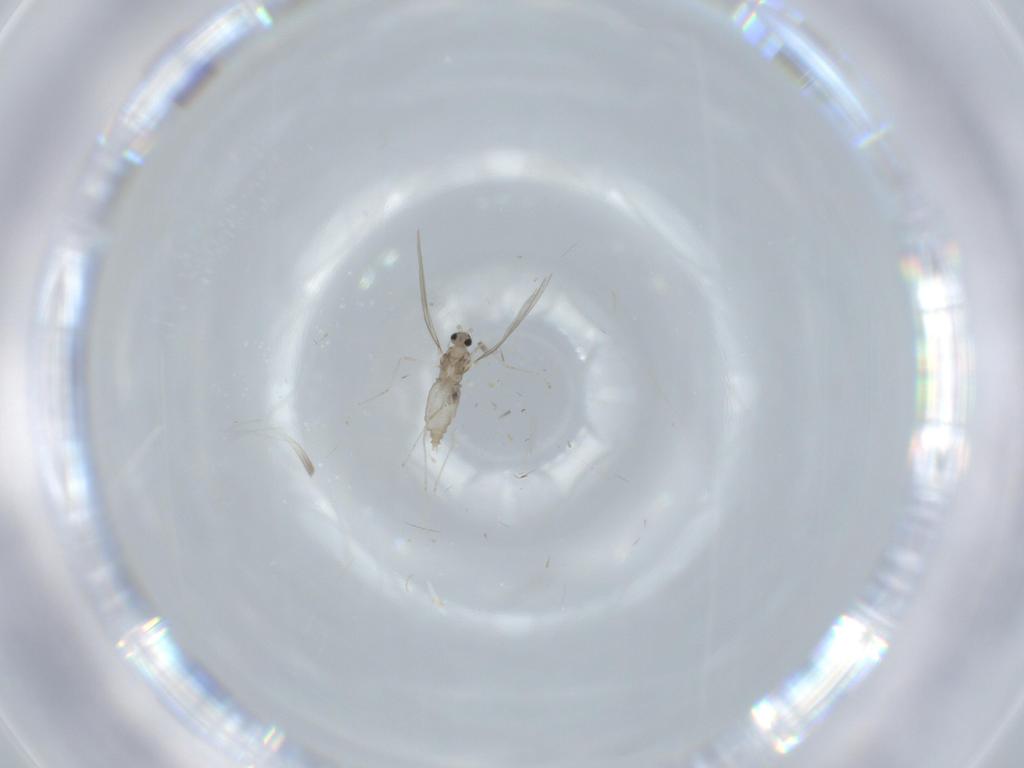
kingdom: Animalia
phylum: Arthropoda
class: Insecta
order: Diptera
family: Cecidomyiidae
